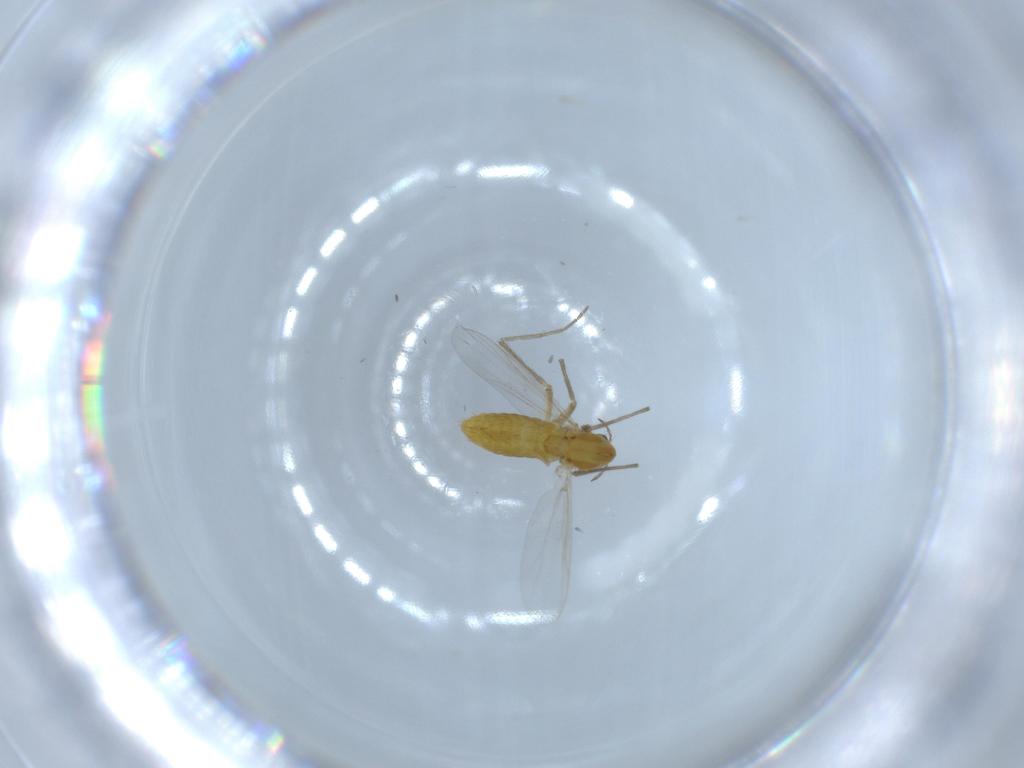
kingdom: Animalia
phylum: Arthropoda
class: Insecta
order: Diptera
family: Chironomidae
